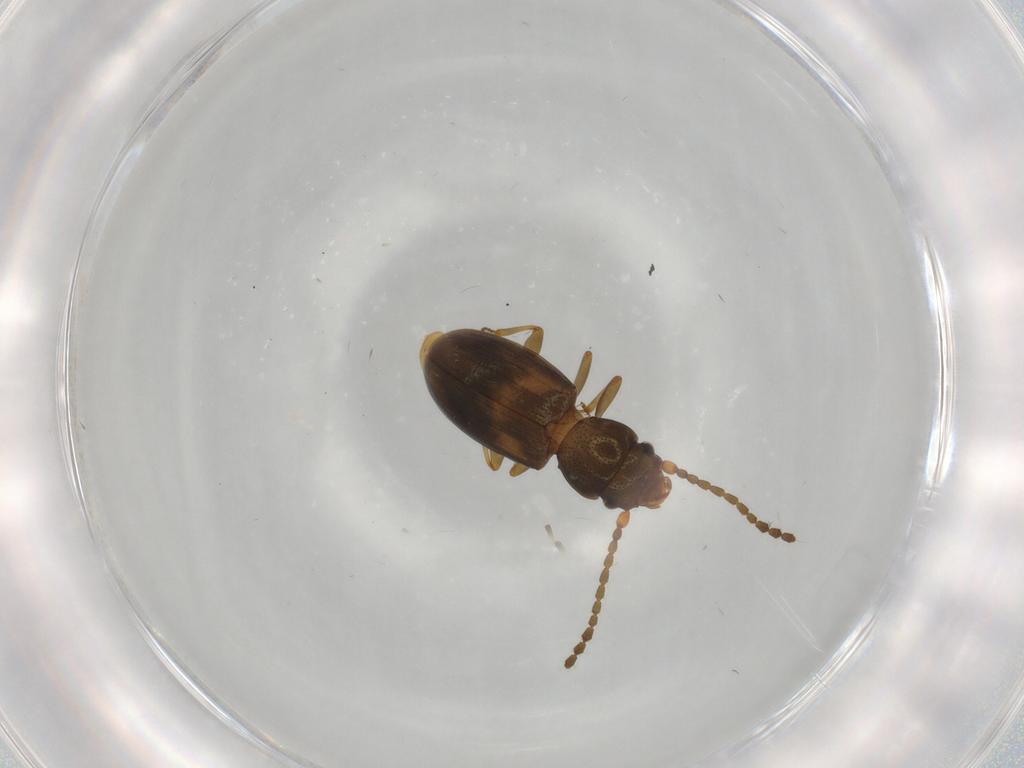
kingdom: Animalia
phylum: Arthropoda
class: Insecta
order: Coleoptera
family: Laemophloeidae
